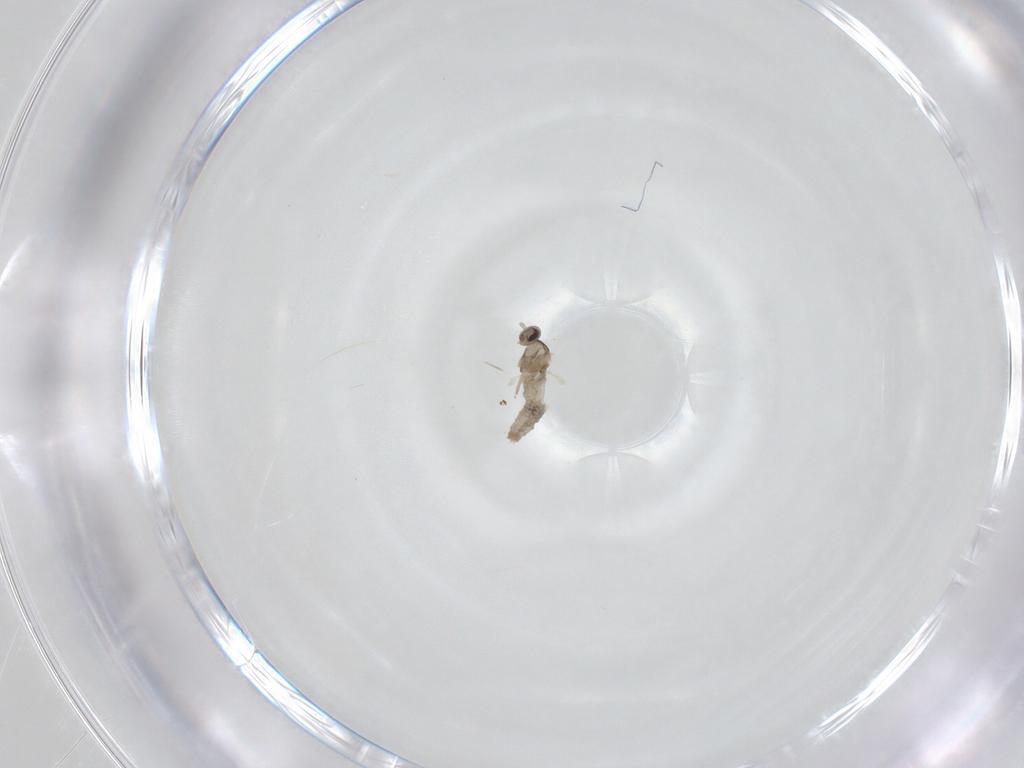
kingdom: Animalia
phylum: Arthropoda
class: Insecta
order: Diptera
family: Cecidomyiidae
